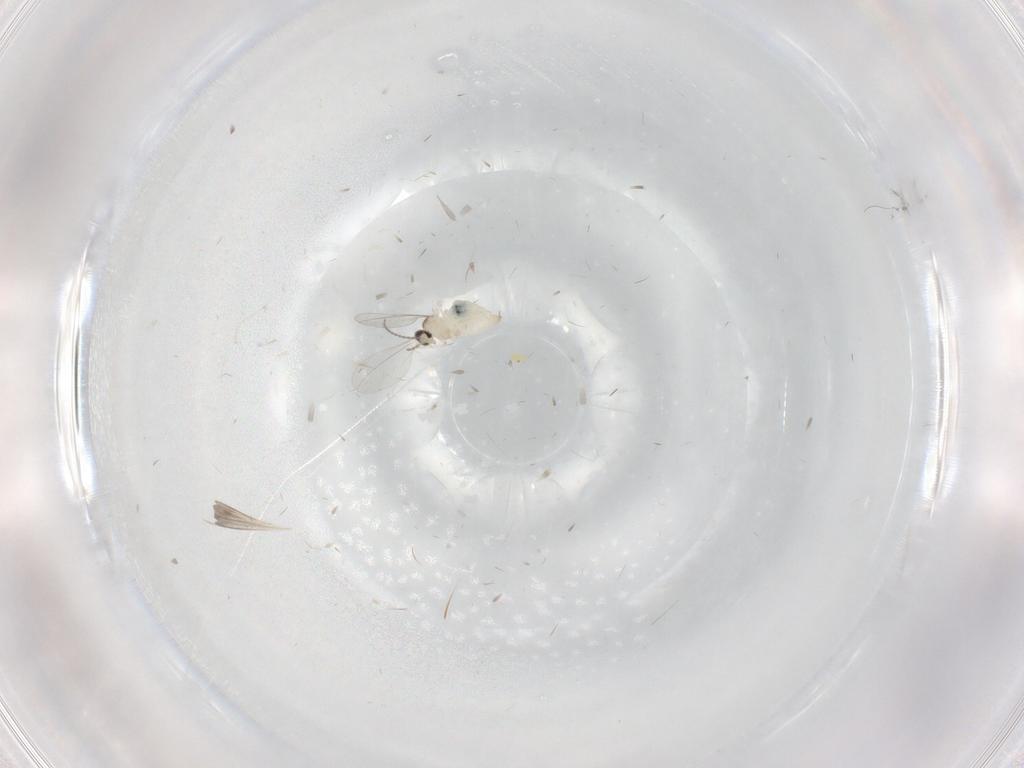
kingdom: Animalia
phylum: Arthropoda
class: Insecta
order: Diptera
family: Cecidomyiidae
